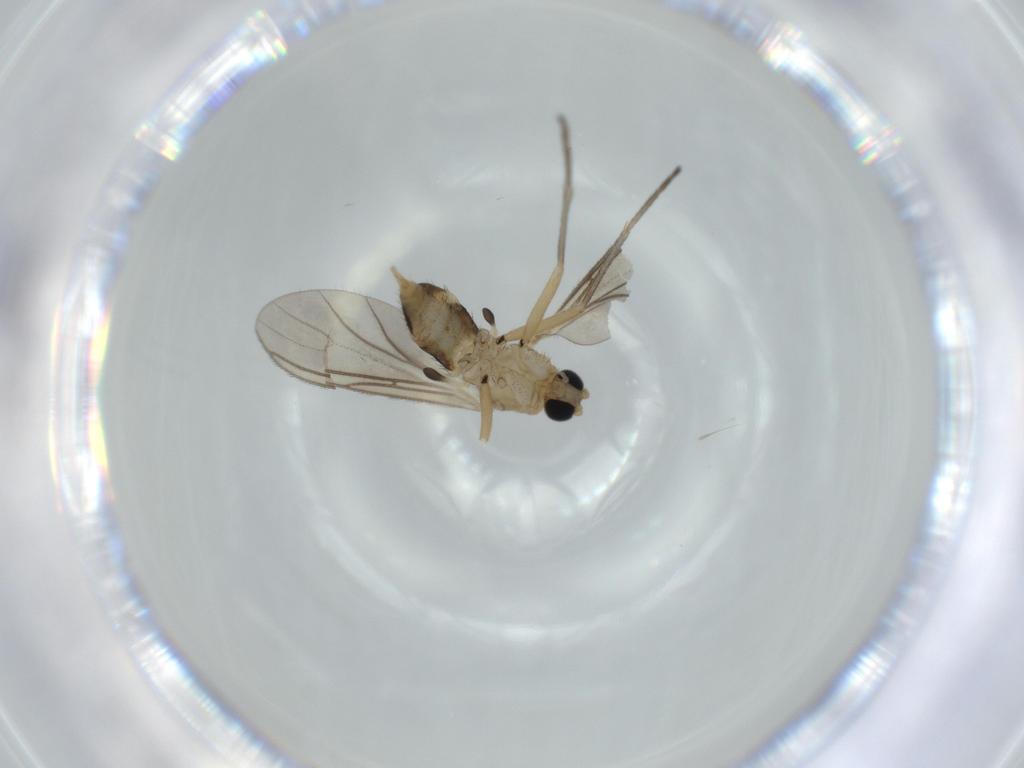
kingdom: Animalia
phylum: Arthropoda
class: Insecta
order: Diptera
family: Sciaridae
